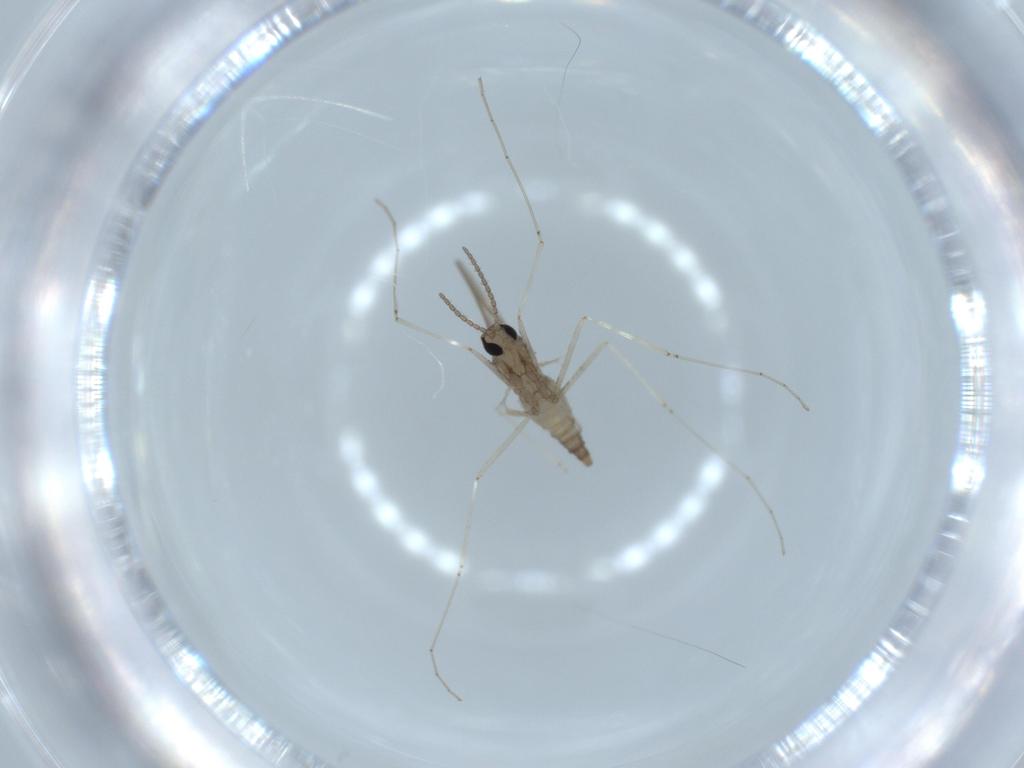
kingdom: Animalia
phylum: Arthropoda
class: Insecta
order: Diptera
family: Cecidomyiidae
